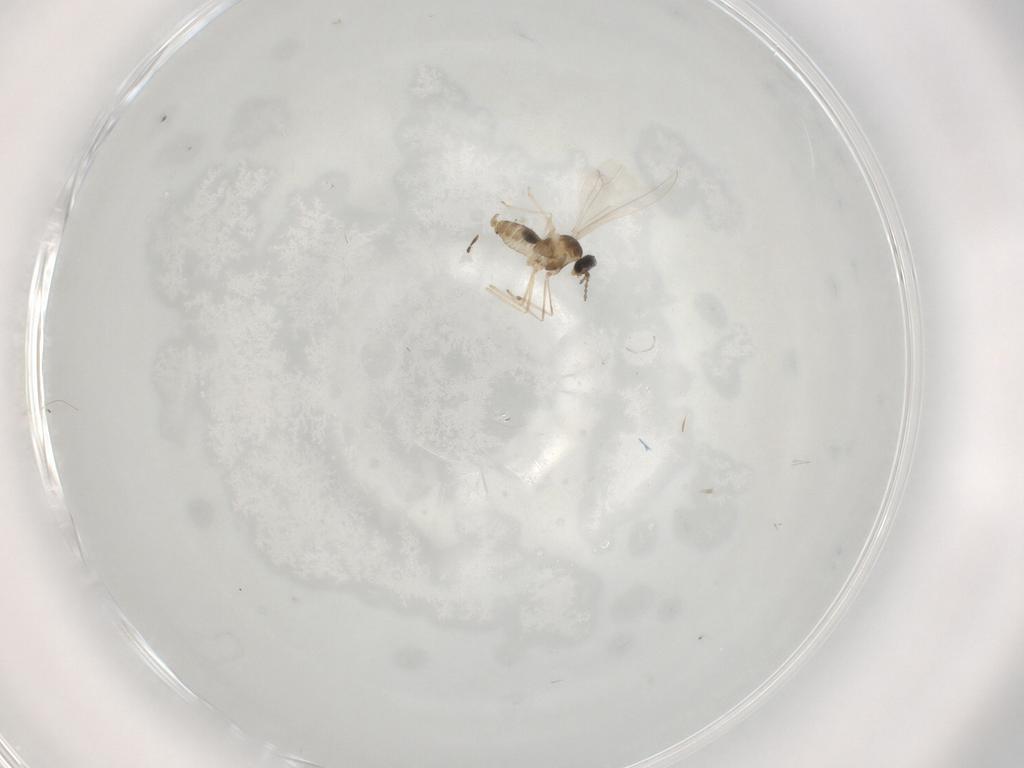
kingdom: Animalia
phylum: Arthropoda
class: Insecta
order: Diptera
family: Cecidomyiidae
